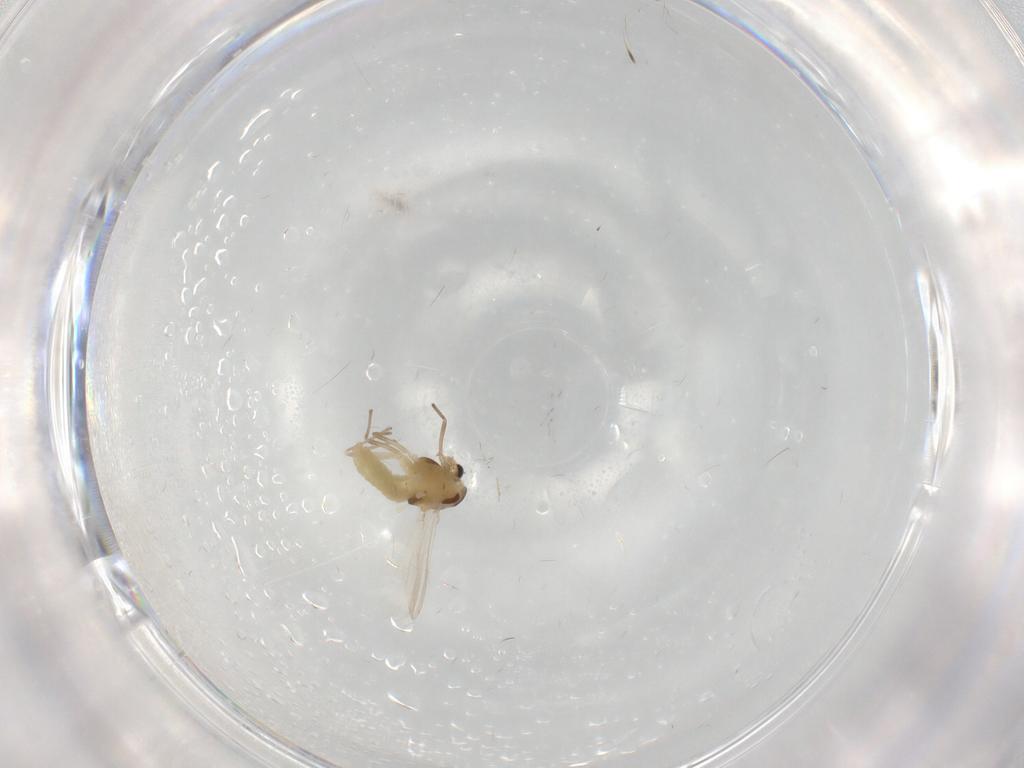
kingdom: Animalia
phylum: Arthropoda
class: Insecta
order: Diptera
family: Chironomidae
